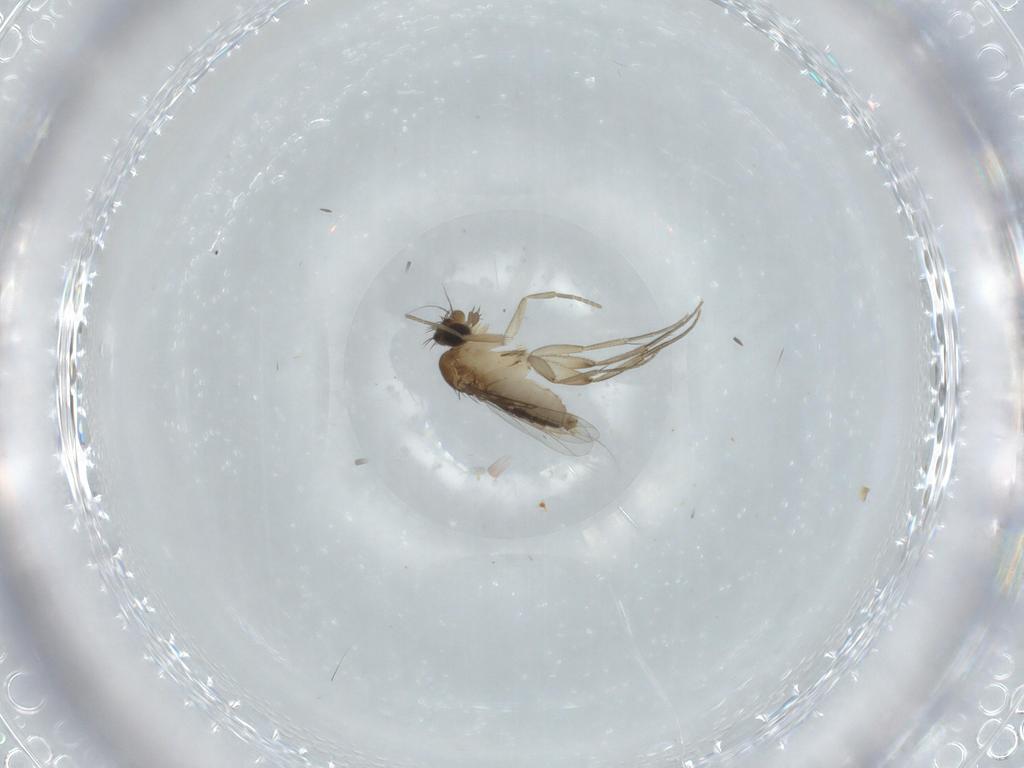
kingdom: Animalia
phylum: Arthropoda
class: Insecta
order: Diptera
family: Phoridae
